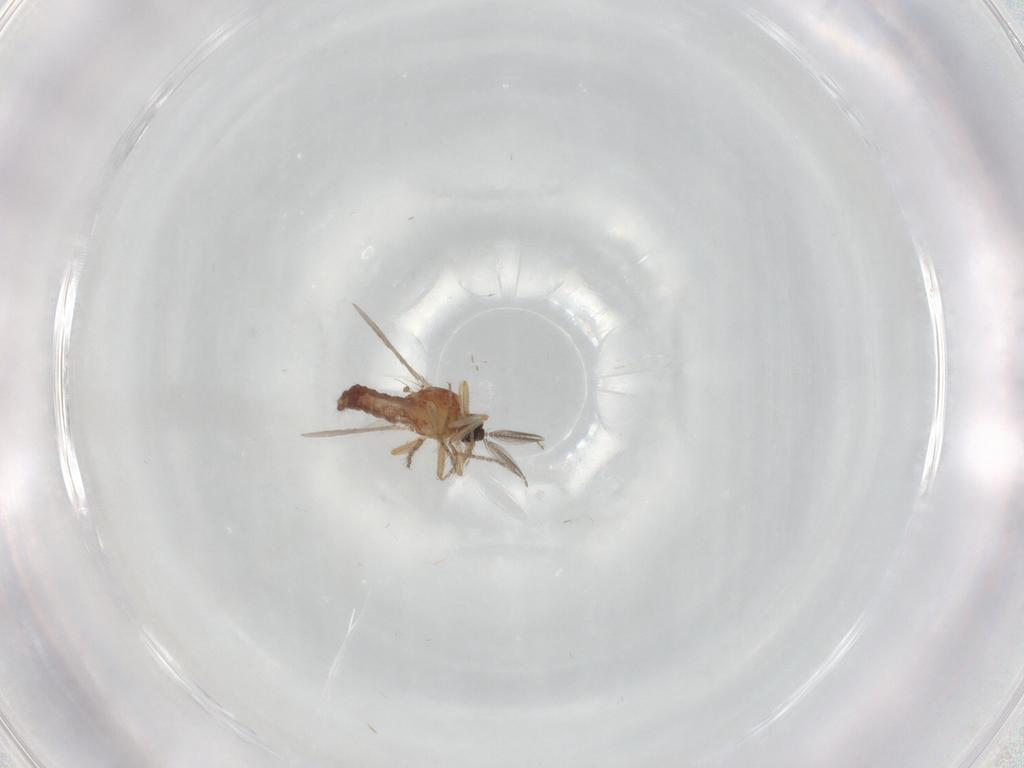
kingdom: Animalia
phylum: Arthropoda
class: Insecta
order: Diptera
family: Ceratopogonidae
